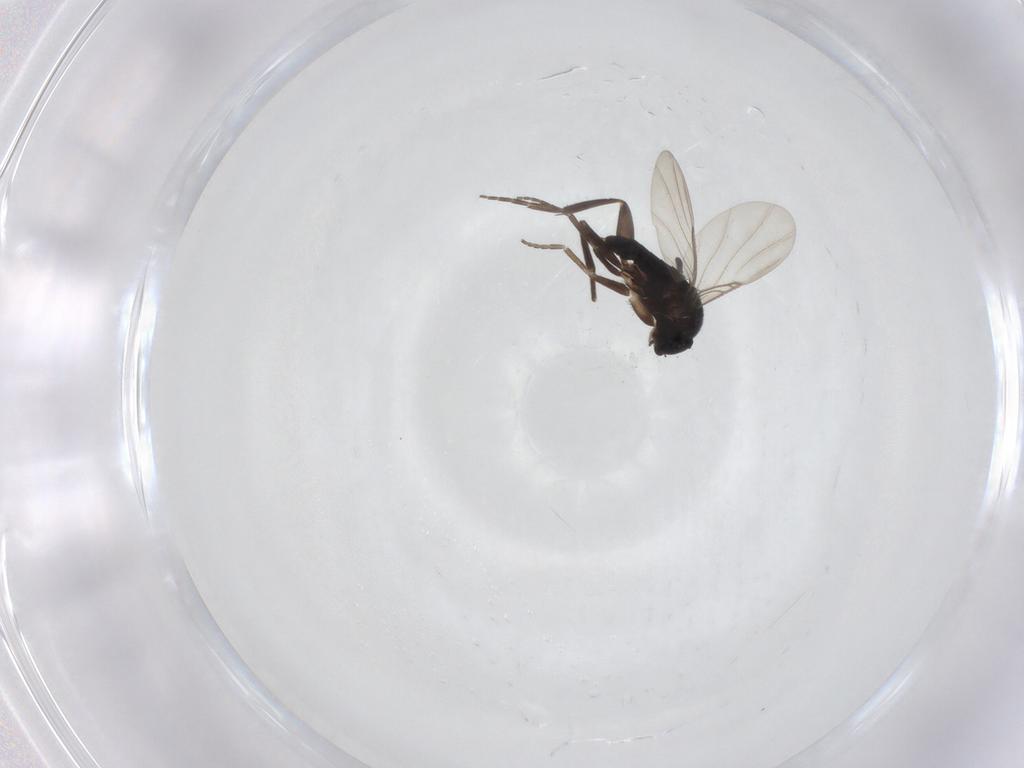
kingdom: Animalia
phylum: Arthropoda
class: Insecta
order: Diptera
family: Phoridae
